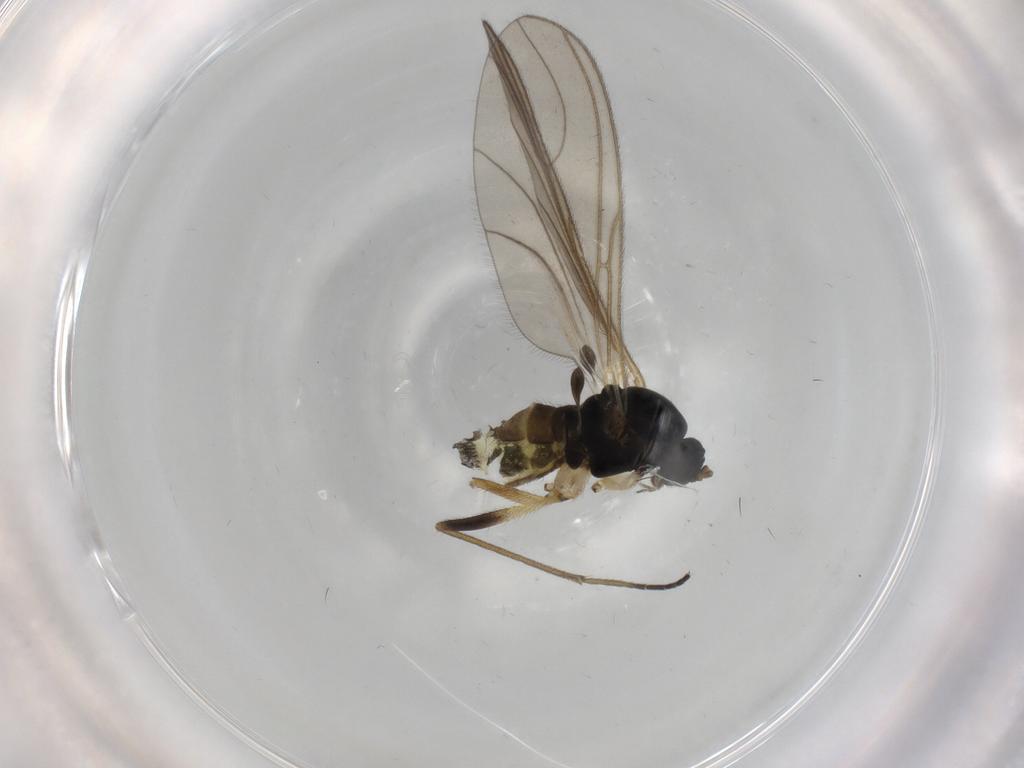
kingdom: Animalia
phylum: Arthropoda
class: Insecta
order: Diptera
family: Sciaridae
